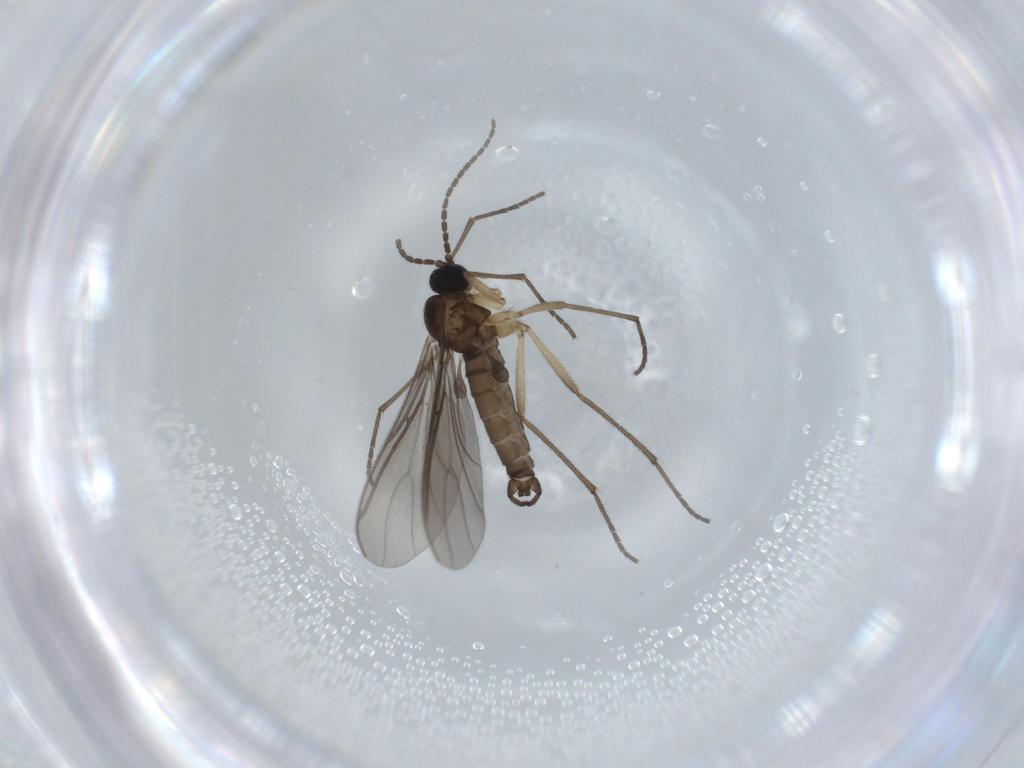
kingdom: Animalia
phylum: Arthropoda
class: Insecta
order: Diptera
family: Sciaridae
